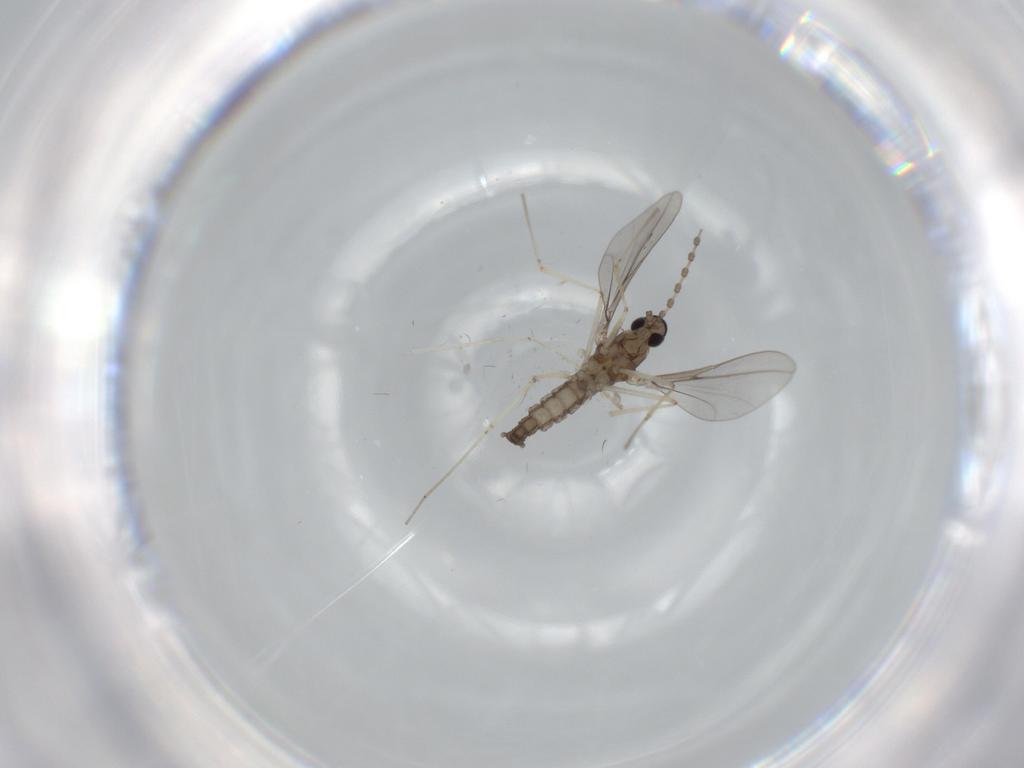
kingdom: Animalia
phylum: Arthropoda
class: Insecta
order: Diptera
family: Cecidomyiidae
